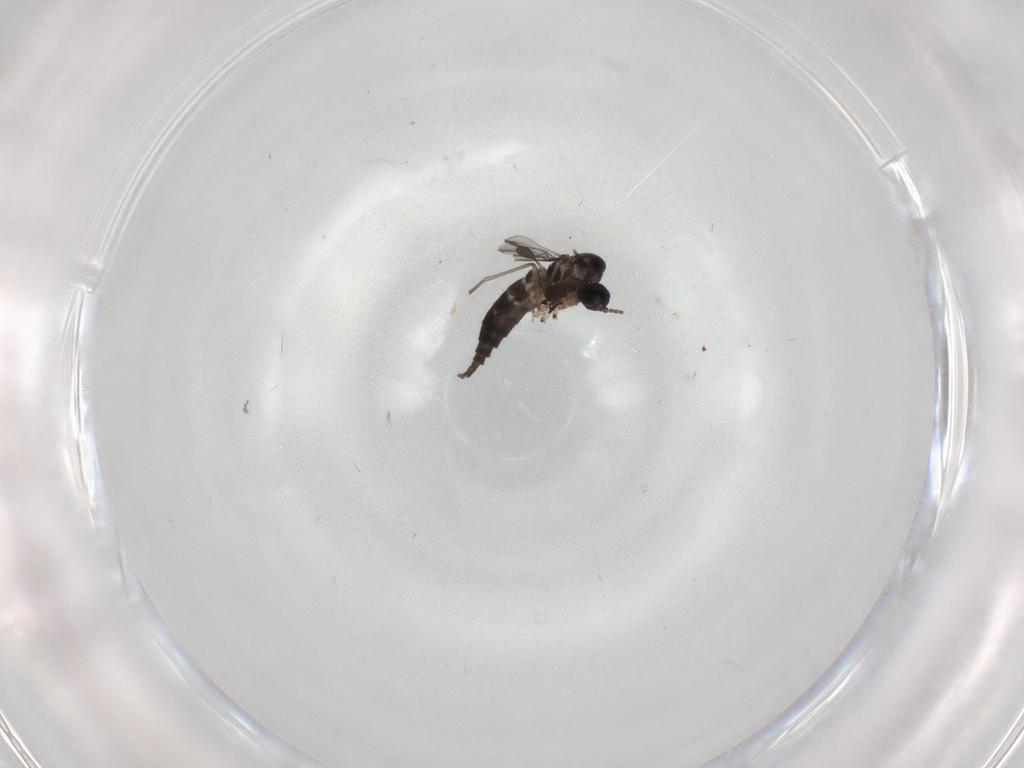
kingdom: Animalia
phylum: Arthropoda
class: Insecta
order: Diptera
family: Sciaridae
